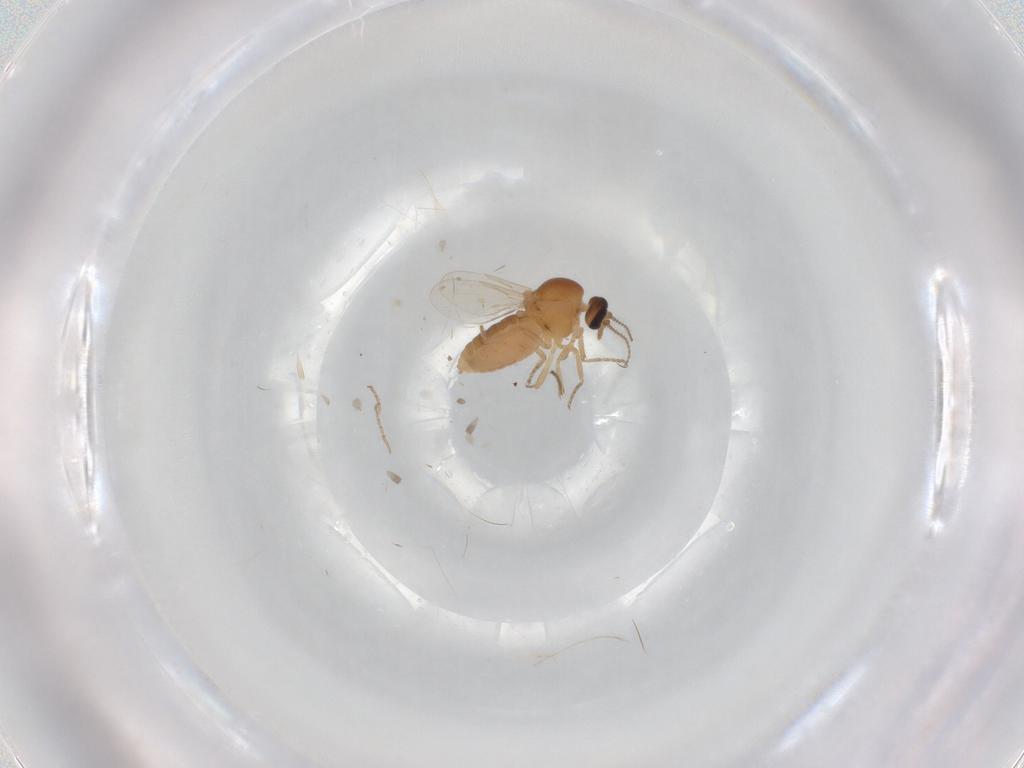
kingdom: Animalia
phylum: Arthropoda
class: Insecta
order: Diptera
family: Ceratopogonidae
